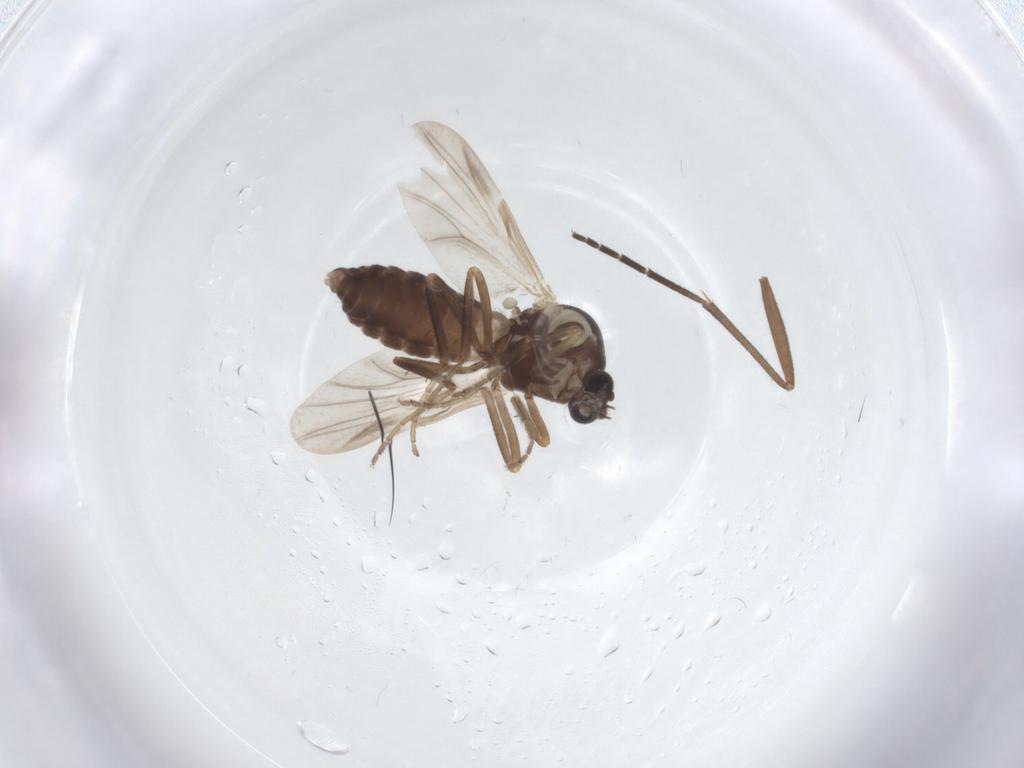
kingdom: Animalia
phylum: Arthropoda
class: Insecta
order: Diptera
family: Ceratopogonidae
